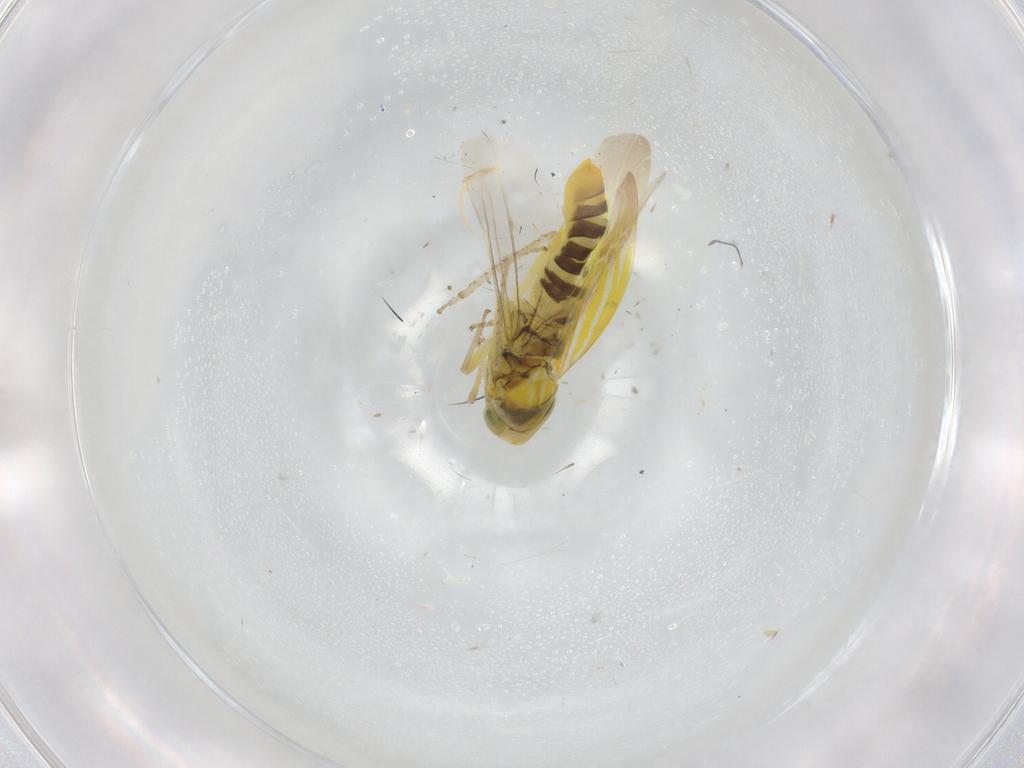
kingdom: Animalia
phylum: Arthropoda
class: Insecta
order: Hemiptera
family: Cicadellidae
